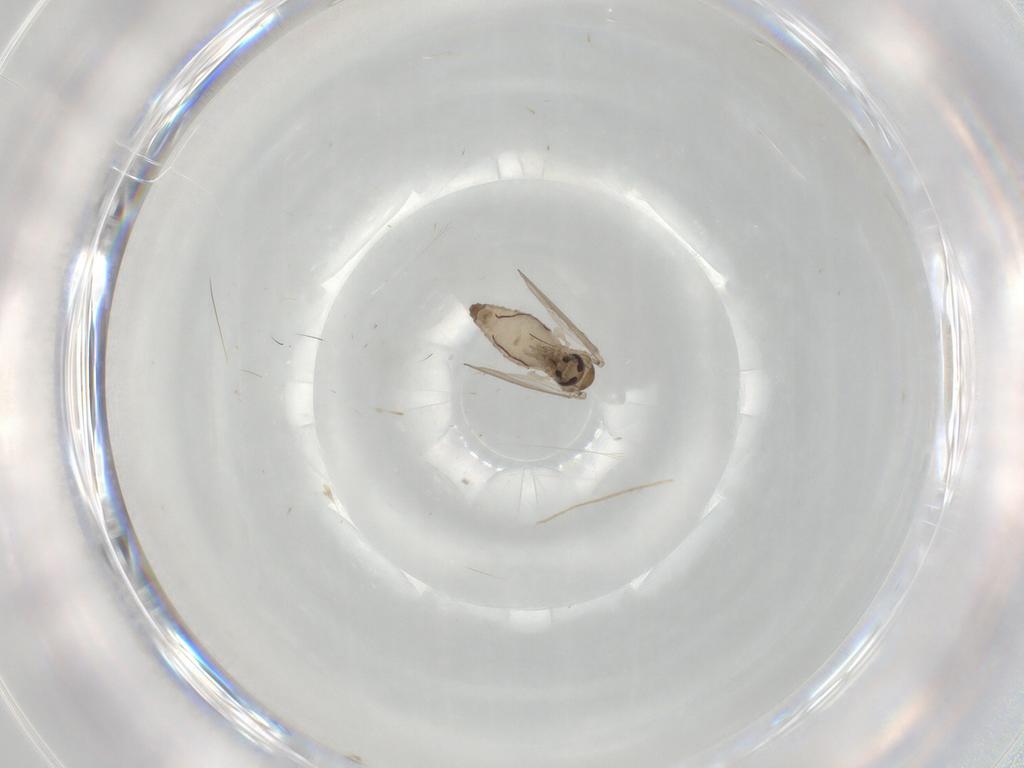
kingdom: Animalia
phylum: Arthropoda
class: Insecta
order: Diptera
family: Psychodidae
